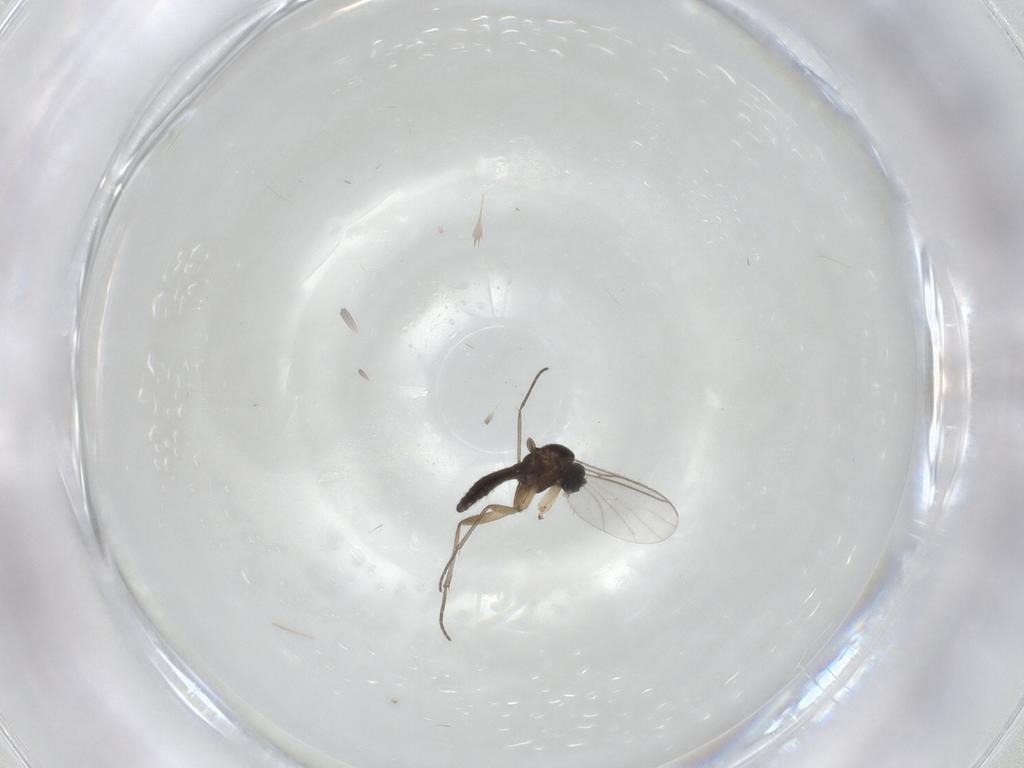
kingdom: Animalia
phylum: Arthropoda
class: Insecta
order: Diptera
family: Sciaridae
